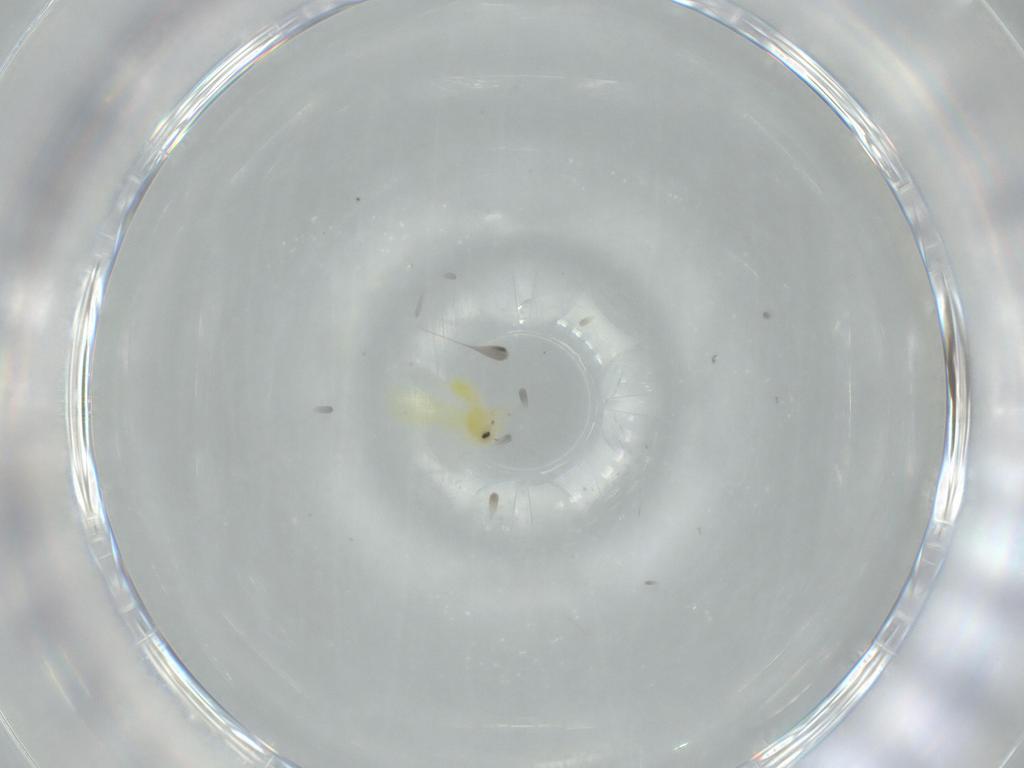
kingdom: Animalia
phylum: Arthropoda
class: Insecta
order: Hemiptera
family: Aleyrodidae
